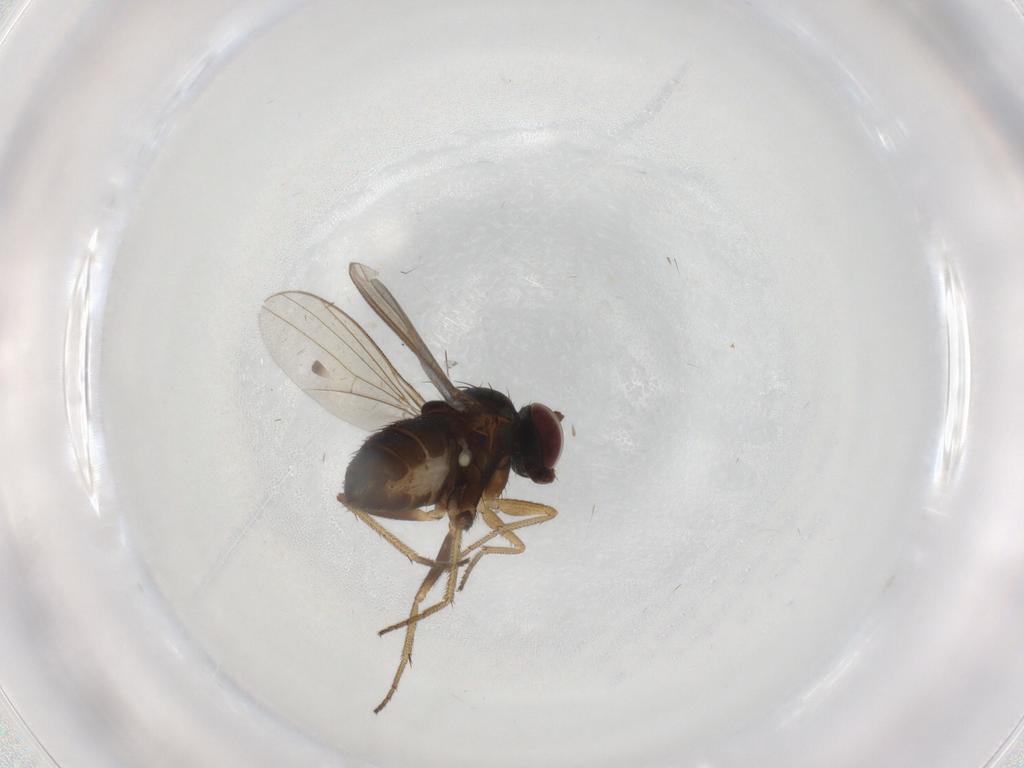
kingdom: Animalia
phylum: Arthropoda
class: Insecta
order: Diptera
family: Dolichopodidae
